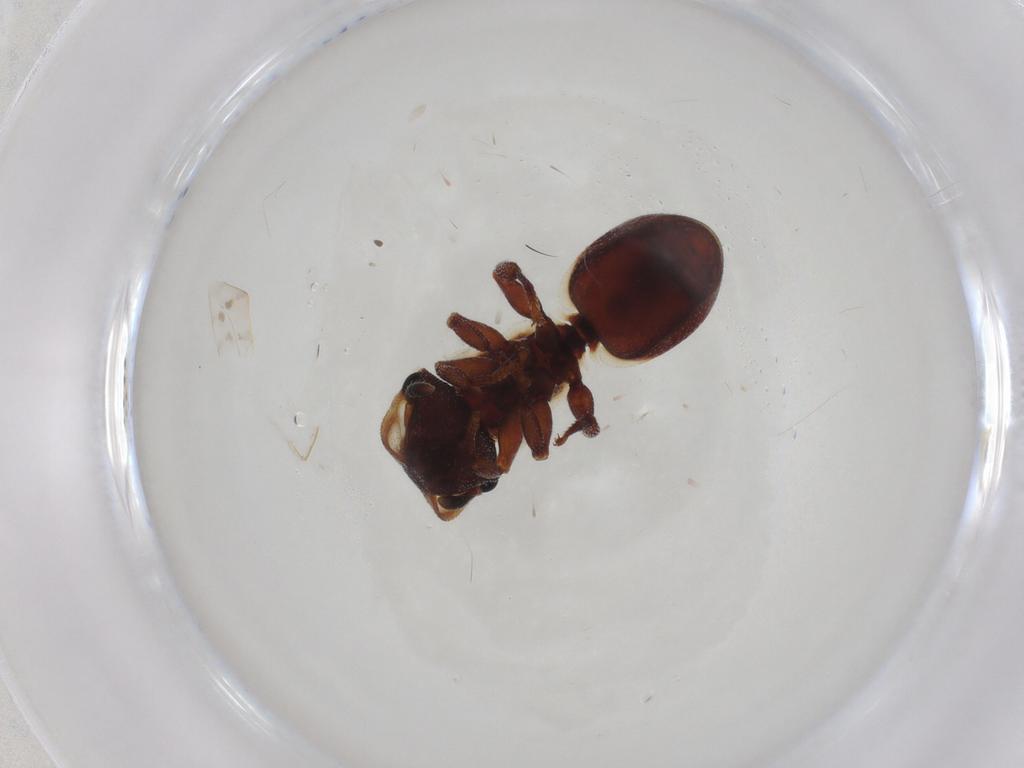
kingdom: Animalia
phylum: Arthropoda
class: Insecta
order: Hymenoptera
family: Formicidae
